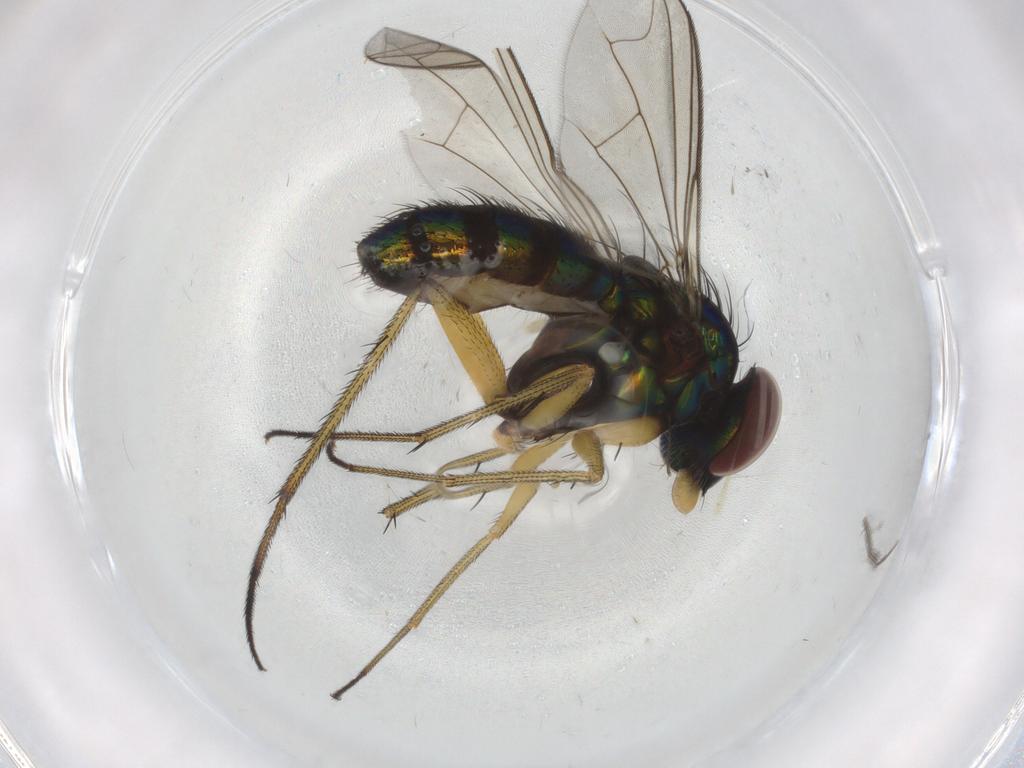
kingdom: Animalia
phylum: Arthropoda
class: Insecta
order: Diptera
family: Dolichopodidae
